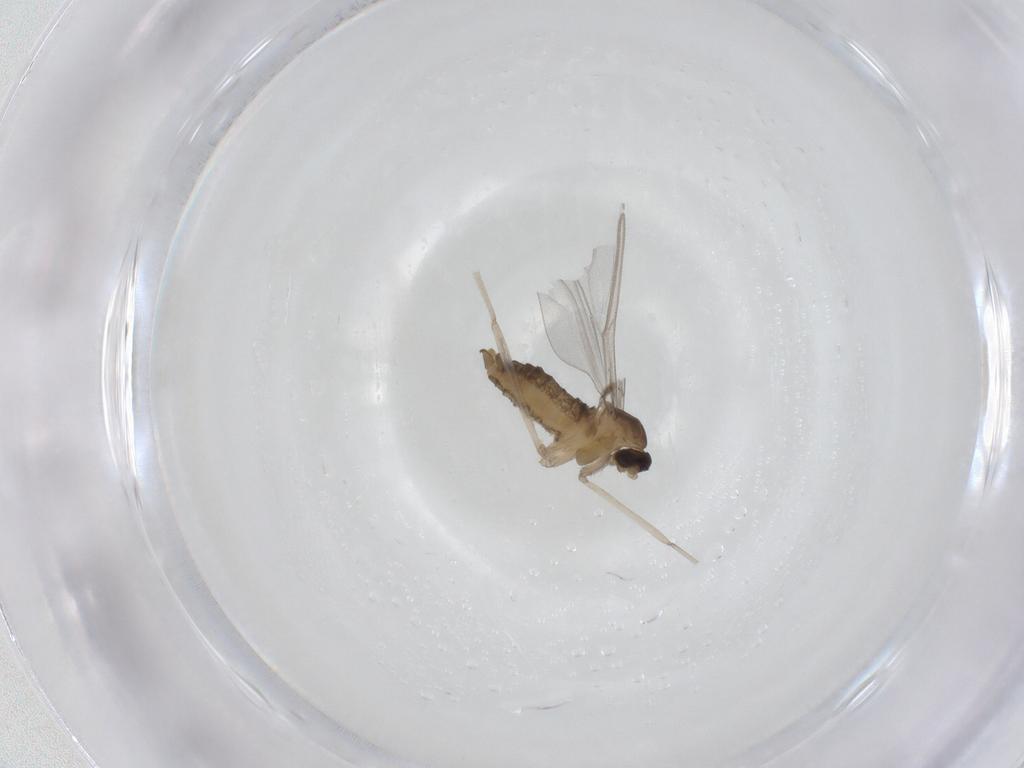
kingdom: Animalia
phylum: Arthropoda
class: Insecta
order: Diptera
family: Cecidomyiidae
